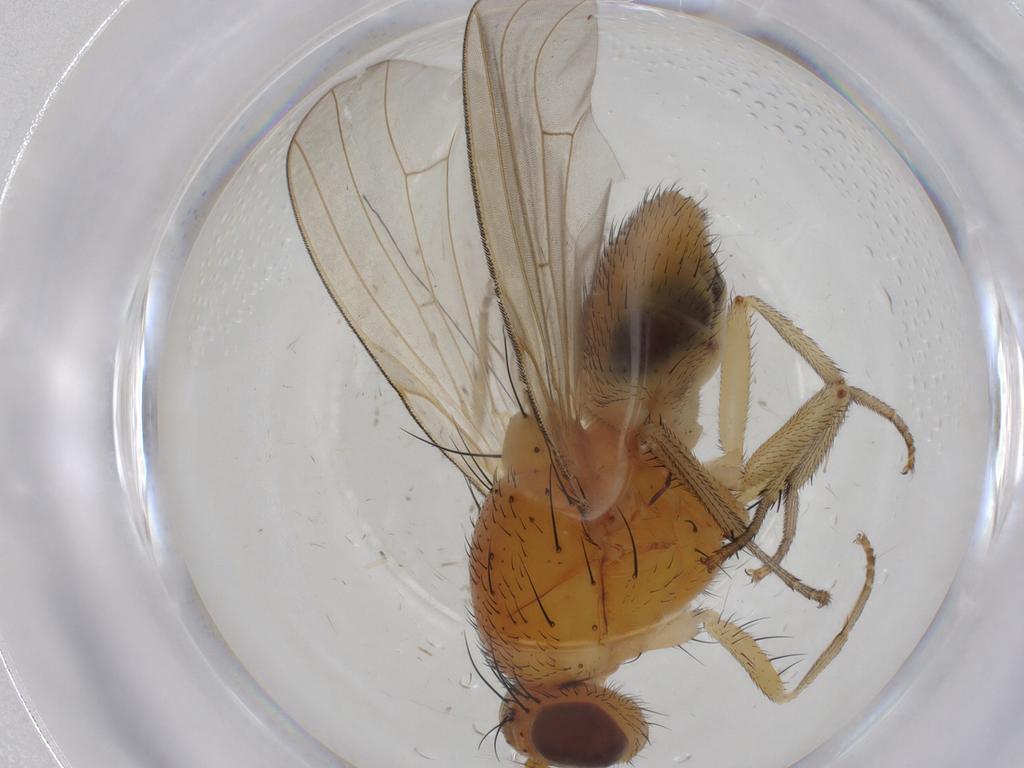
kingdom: Animalia
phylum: Arthropoda
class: Insecta
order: Diptera
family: Ceratopogonidae
